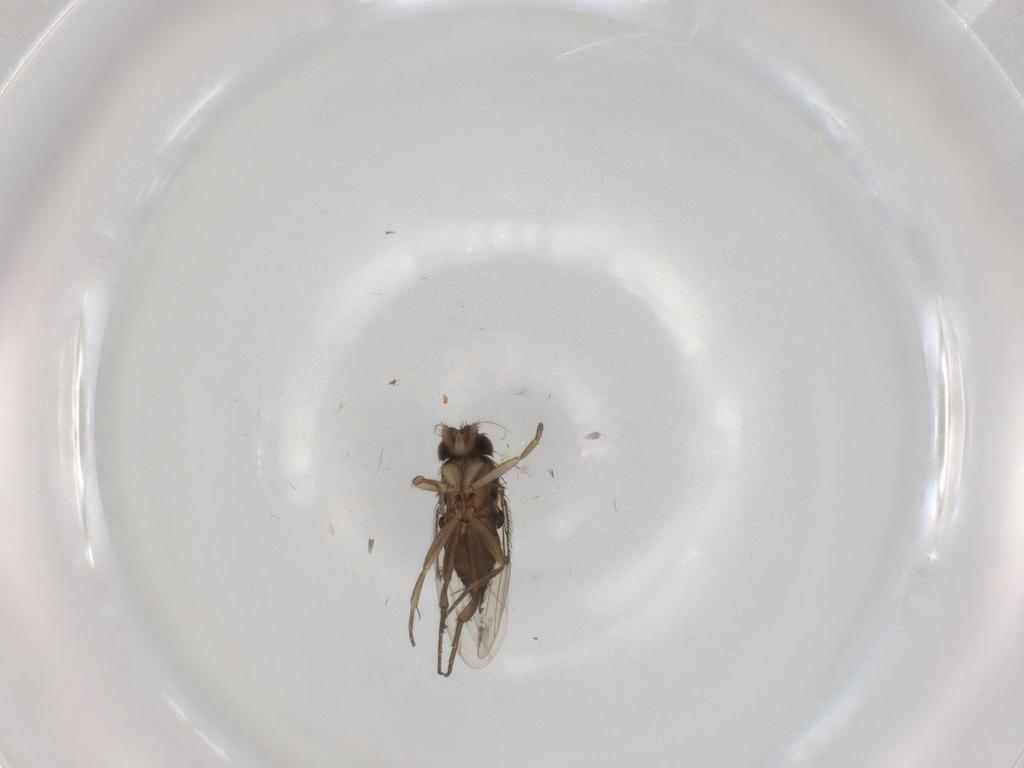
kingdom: Animalia
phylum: Arthropoda
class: Insecta
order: Diptera
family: Phoridae
